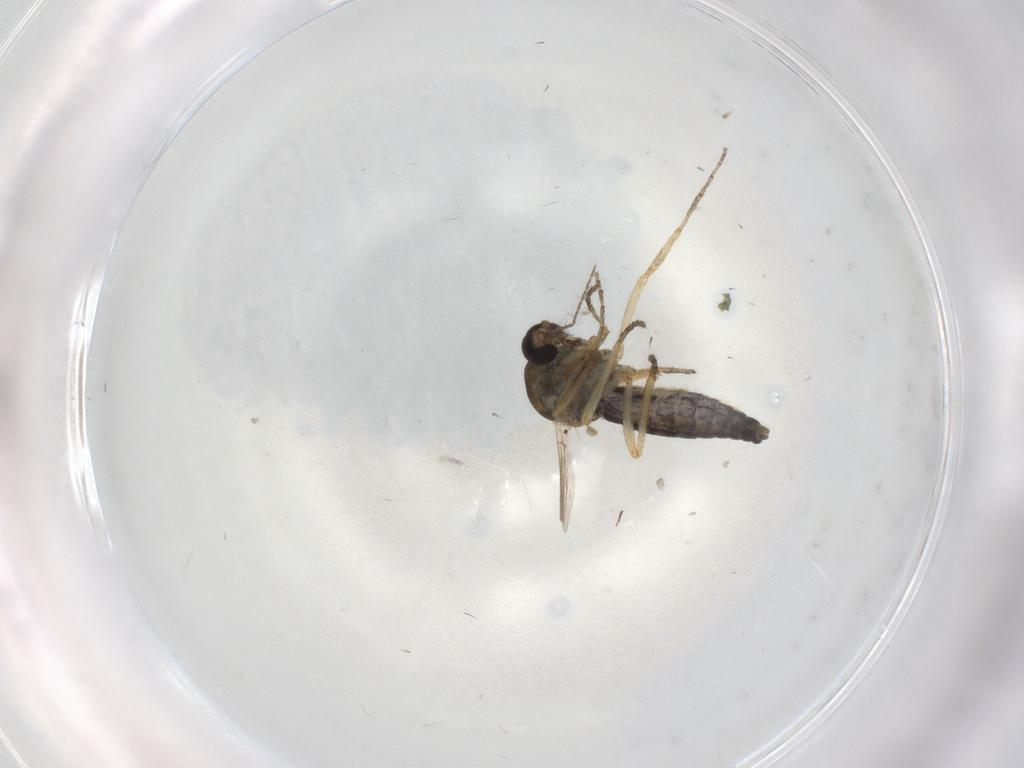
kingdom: Animalia
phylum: Arthropoda
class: Insecta
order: Diptera
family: Ceratopogonidae
